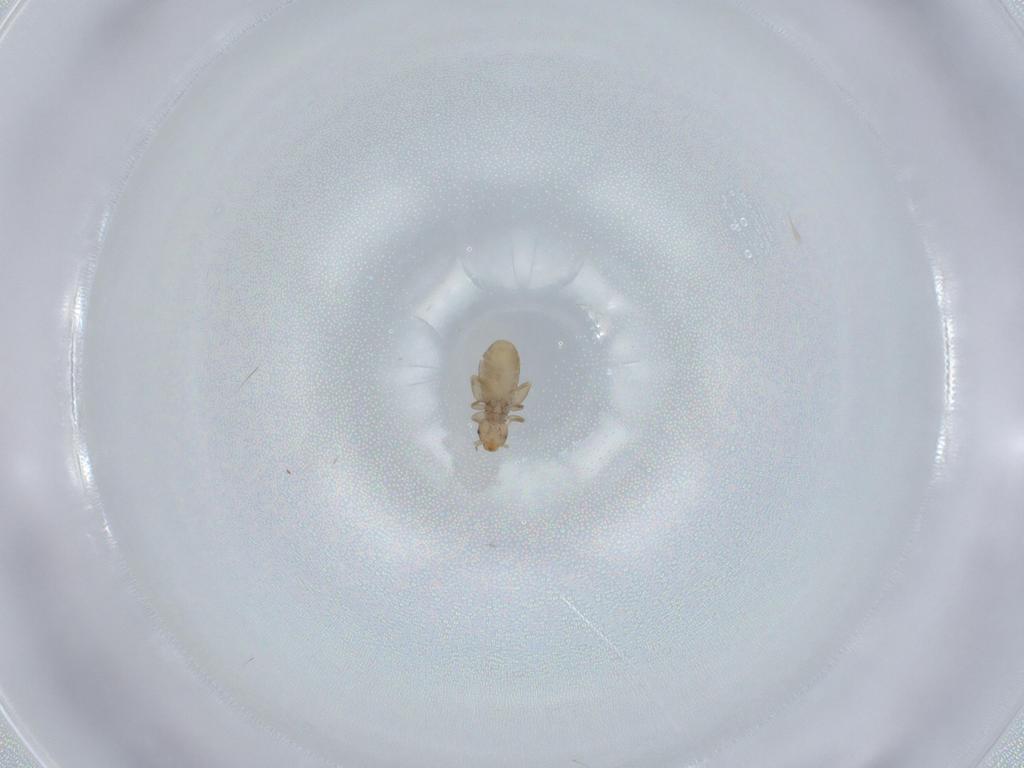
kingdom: Animalia
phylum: Arthropoda
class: Insecta
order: Psocodea
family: Liposcelididae
